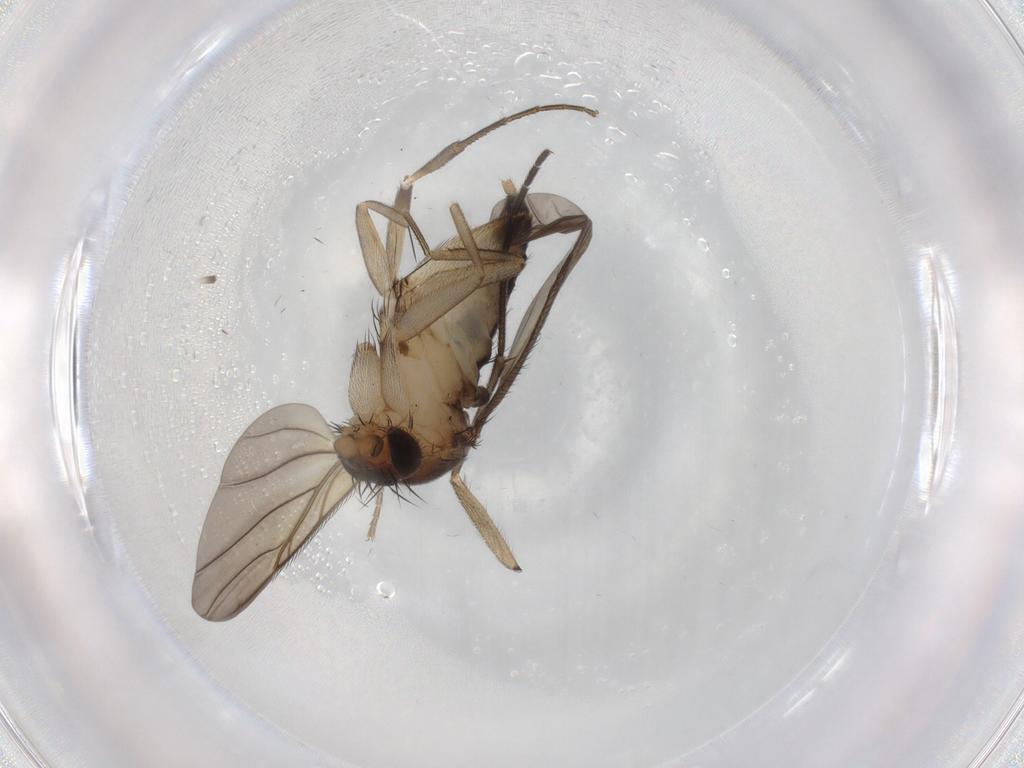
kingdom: Animalia
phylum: Arthropoda
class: Insecta
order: Diptera
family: Phoridae
